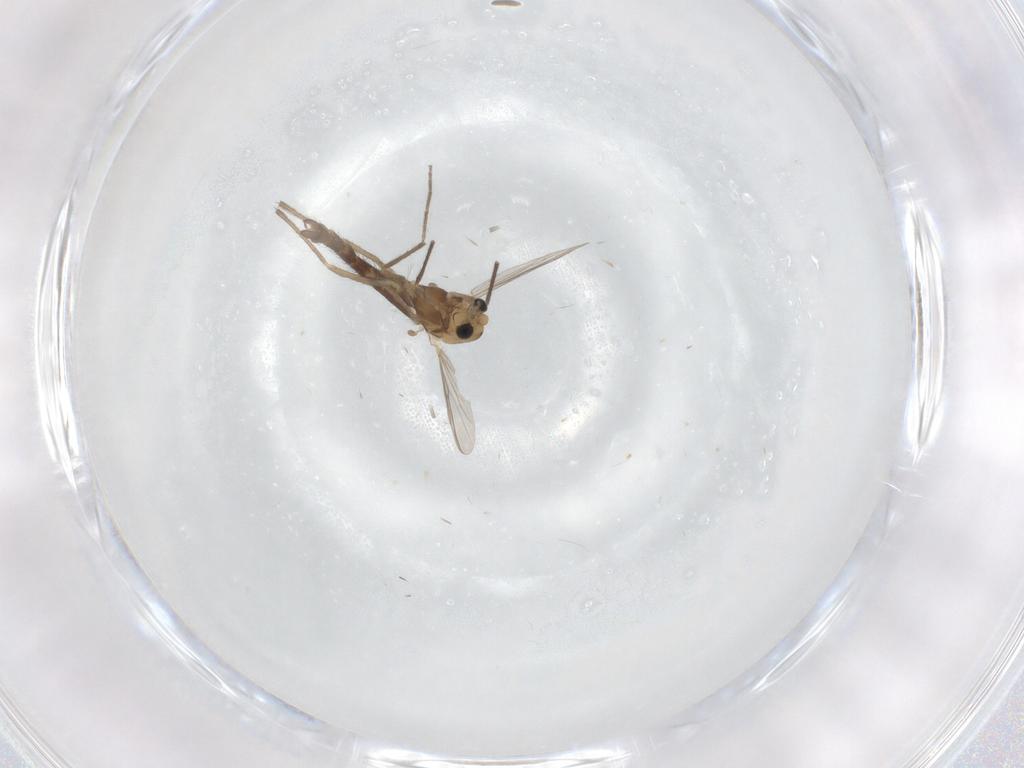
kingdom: Animalia
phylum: Arthropoda
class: Insecta
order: Diptera
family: Chironomidae
